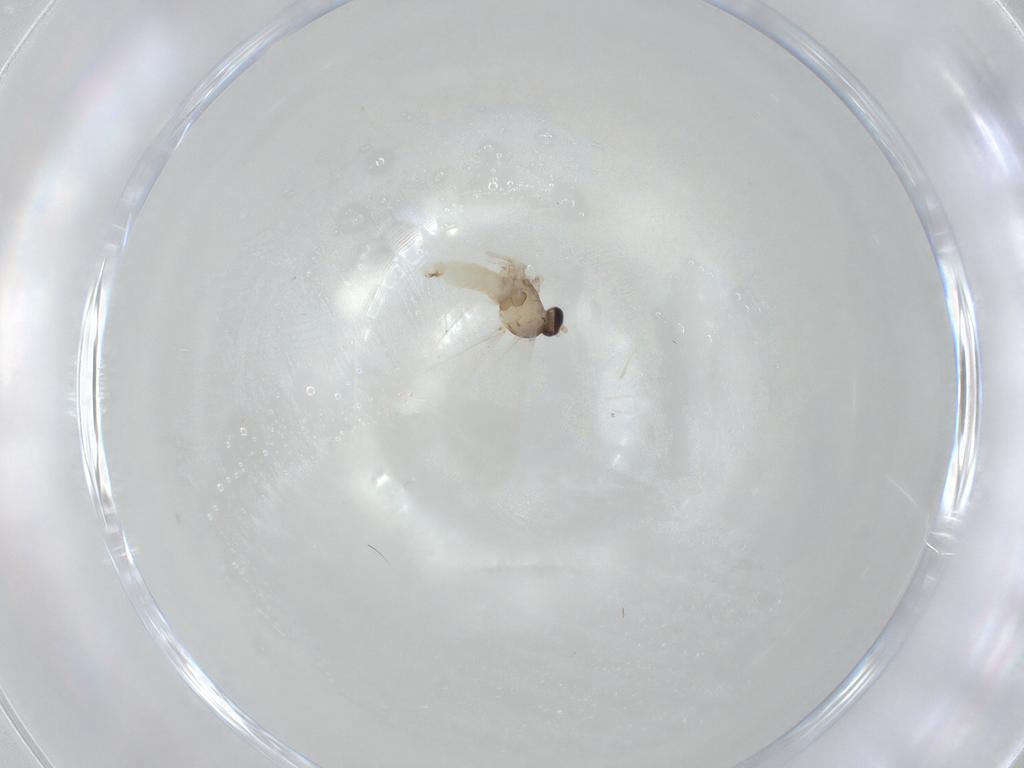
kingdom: Animalia
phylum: Arthropoda
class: Insecta
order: Diptera
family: Cecidomyiidae
